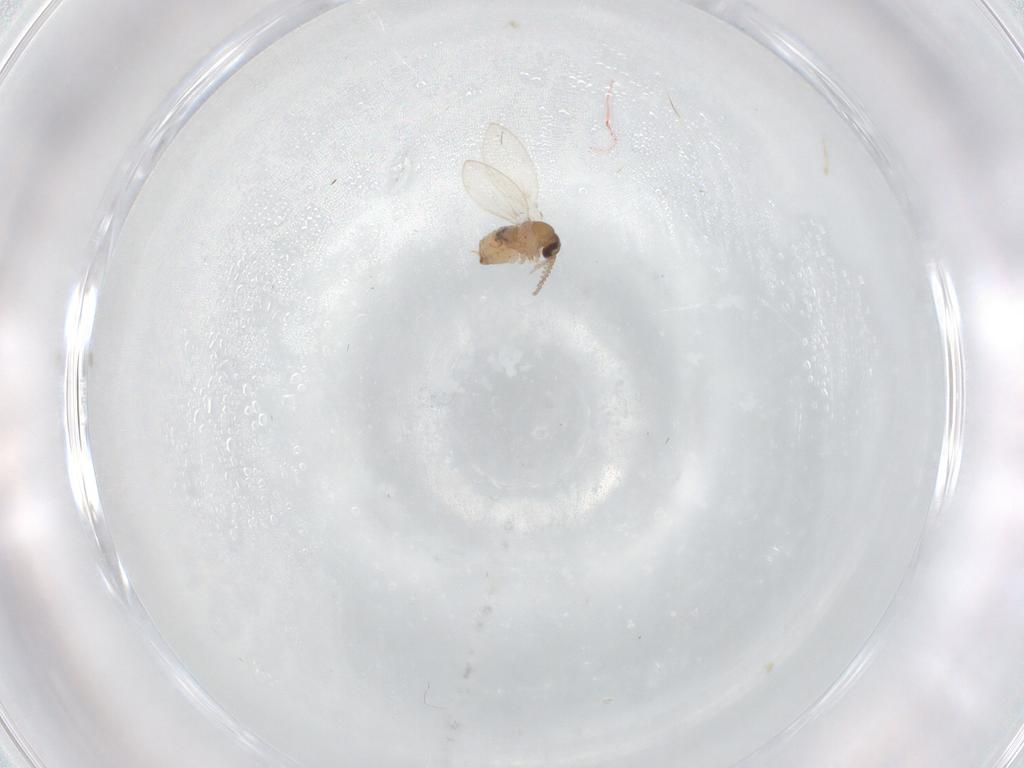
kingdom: Animalia
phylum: Arthropoda
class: Insecta
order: Diptera
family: Psychodidae
